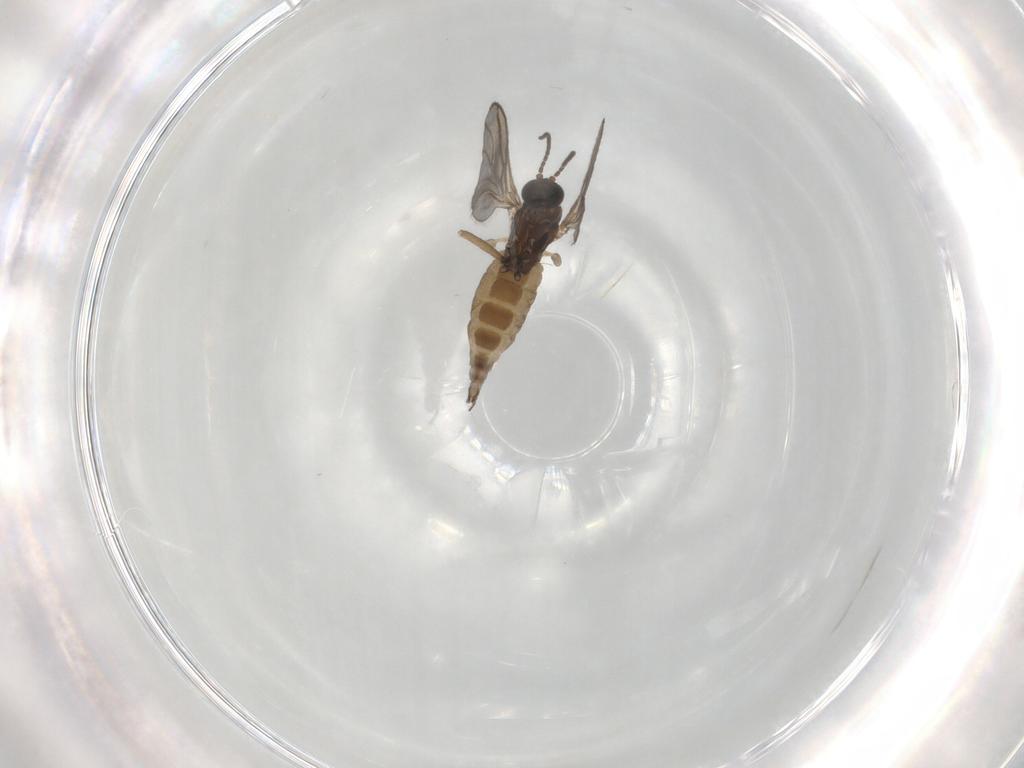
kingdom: Animalia
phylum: Arthropoda
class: Insecta
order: Diptera
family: Sciaridae
